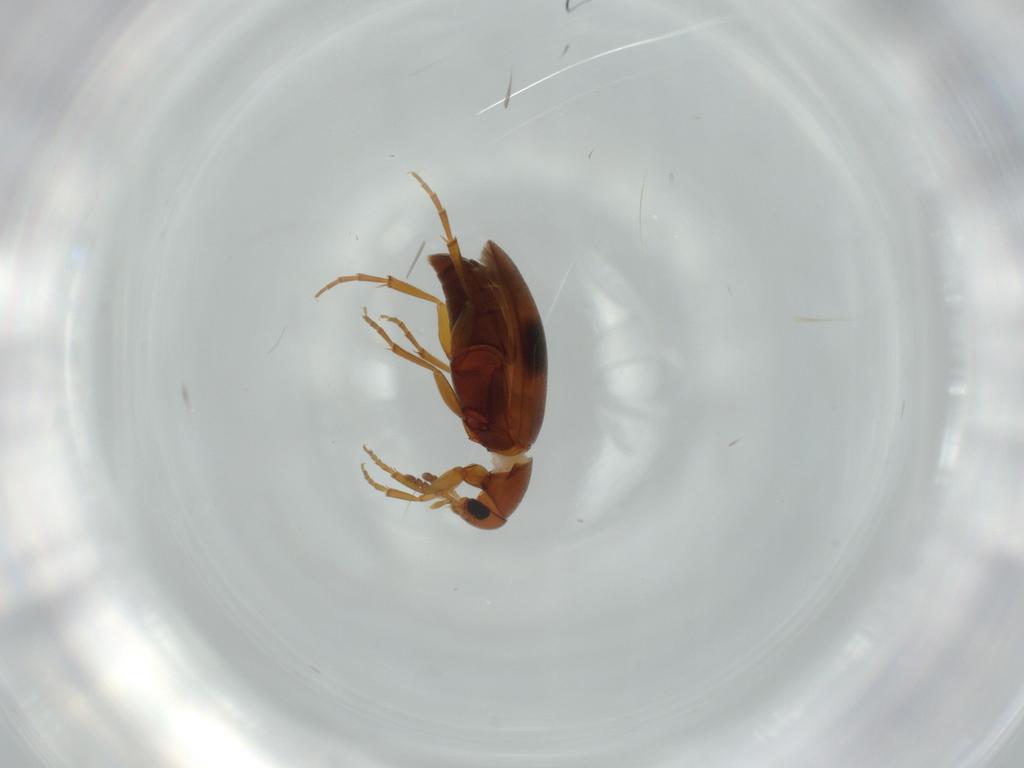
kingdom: Animalia
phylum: Arthropoda
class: Insecta
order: Coleoptera
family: Scraptiidae
